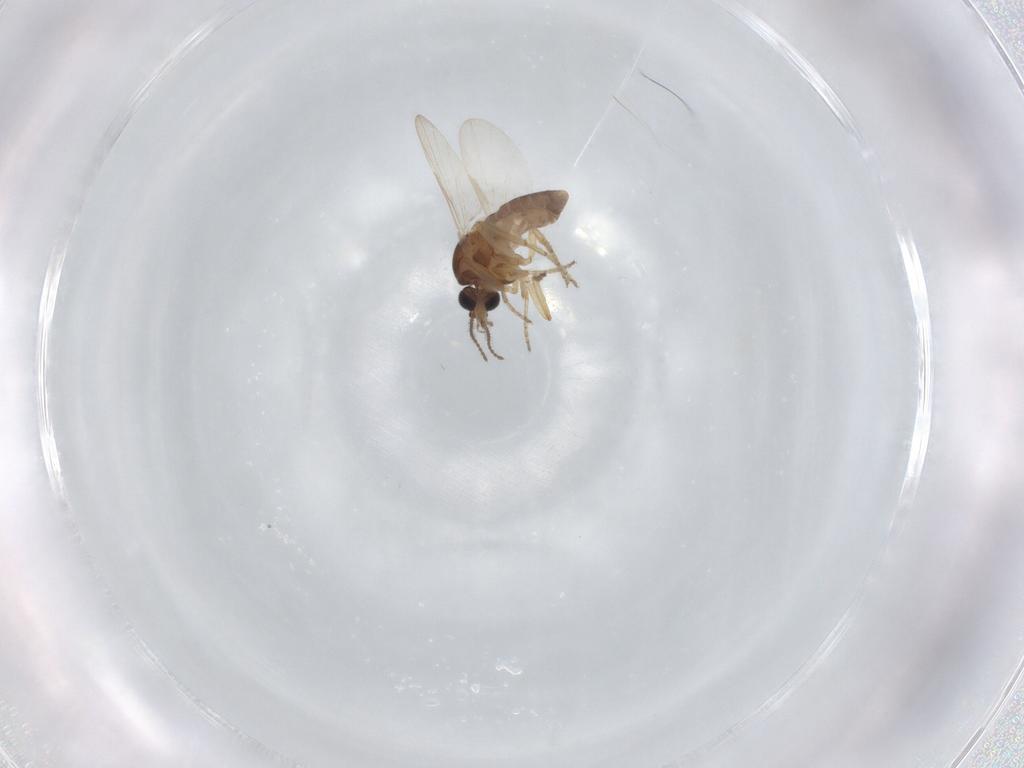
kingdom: Animalia
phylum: Arthropoda
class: Insecta
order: Diptera
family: Ceratopogonidae
